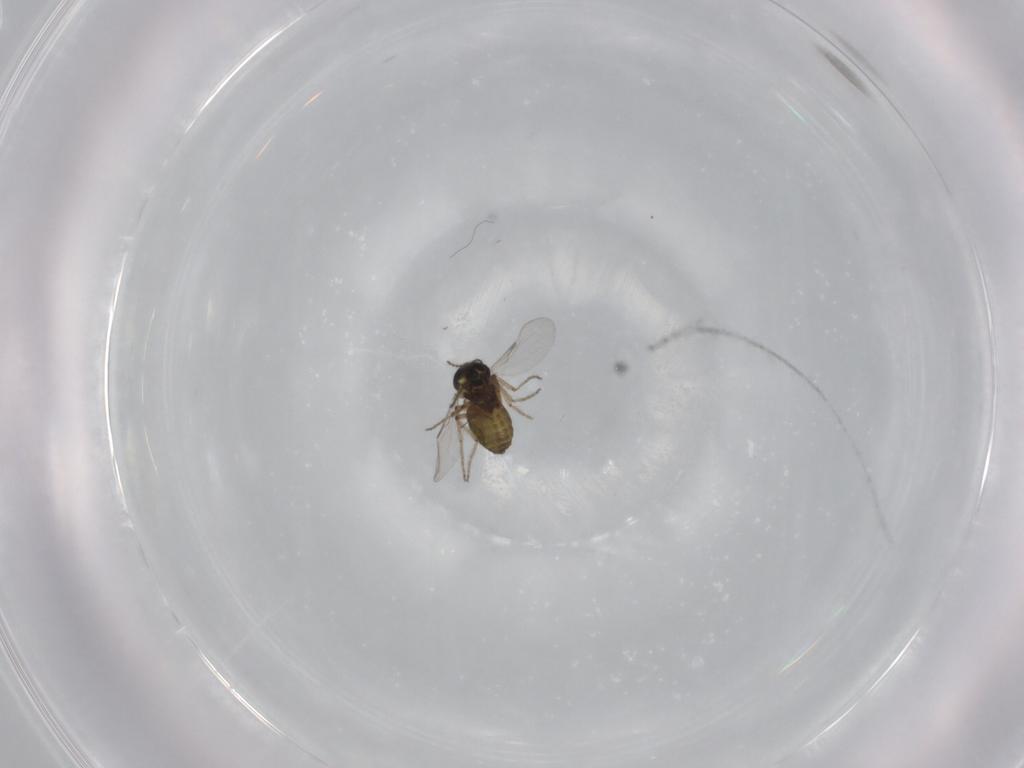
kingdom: Animalia
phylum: Arthropoda
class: Insecta
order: Diptera
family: Ceratopogonidae
